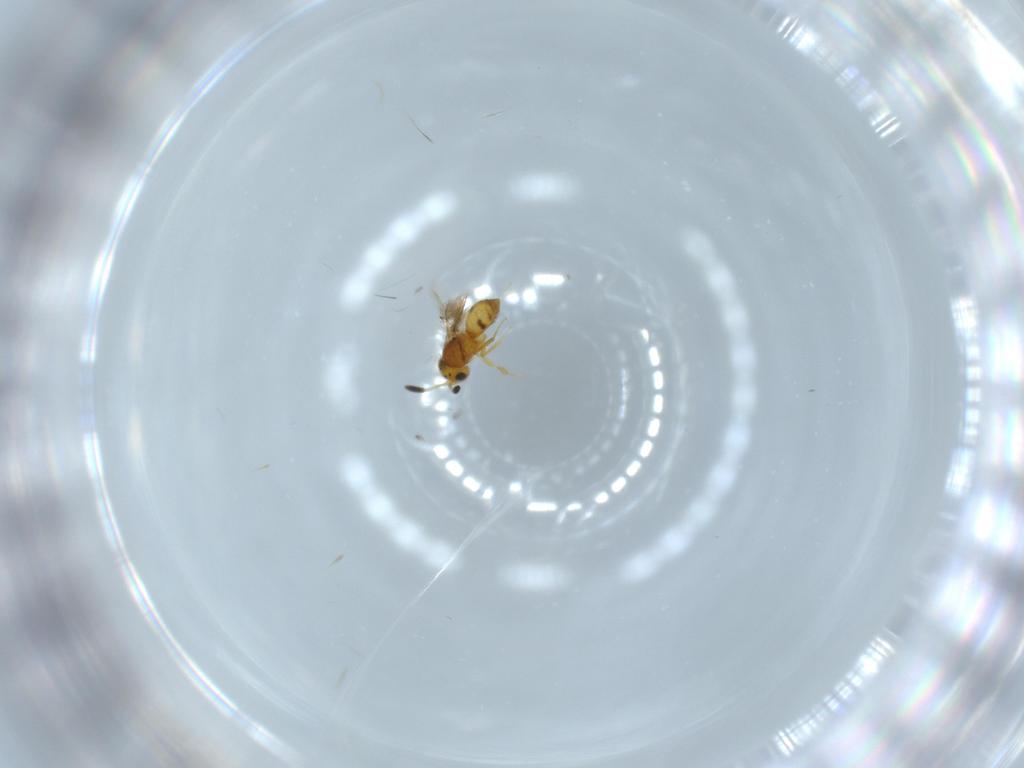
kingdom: Animalia
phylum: Arthropoda
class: Insecta
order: Hymenoptera
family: Scelionidae
